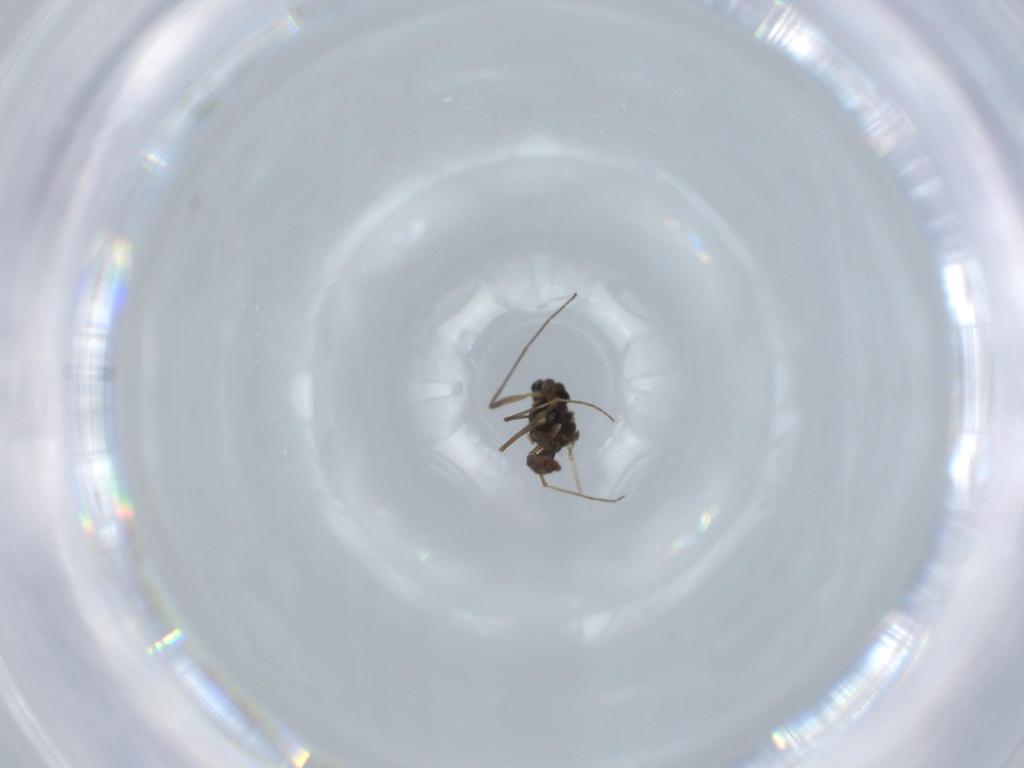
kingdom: Animalia
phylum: Arthropoda
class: Insecta
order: Diptera
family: Chironomidae
